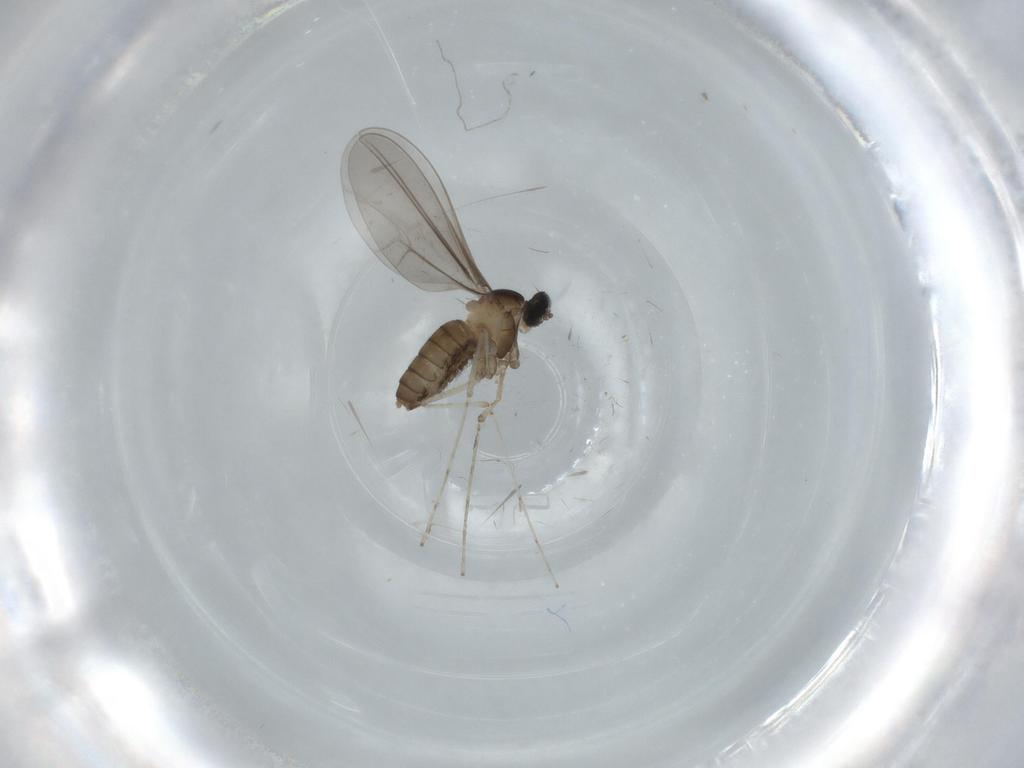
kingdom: Animalia
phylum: Arthropoda
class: Insecta
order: Diptera
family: Cecidomyiidae
